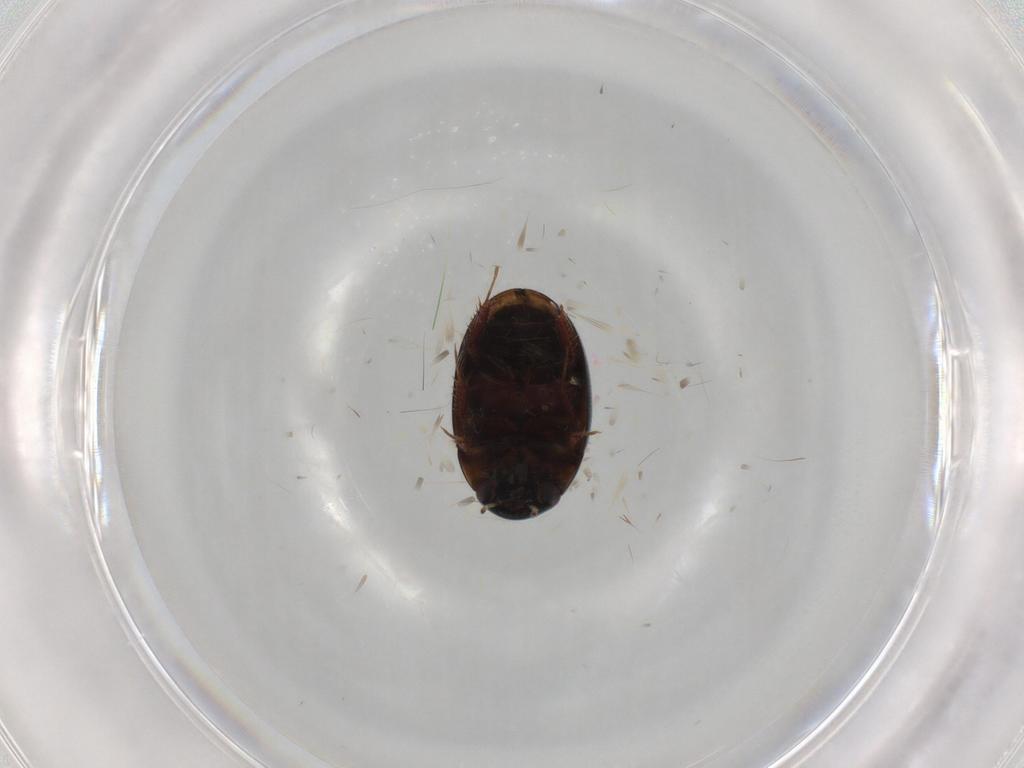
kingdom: Animalia
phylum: Arthropoda
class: Insecta
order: Coleoptera
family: Hydrophilidae
